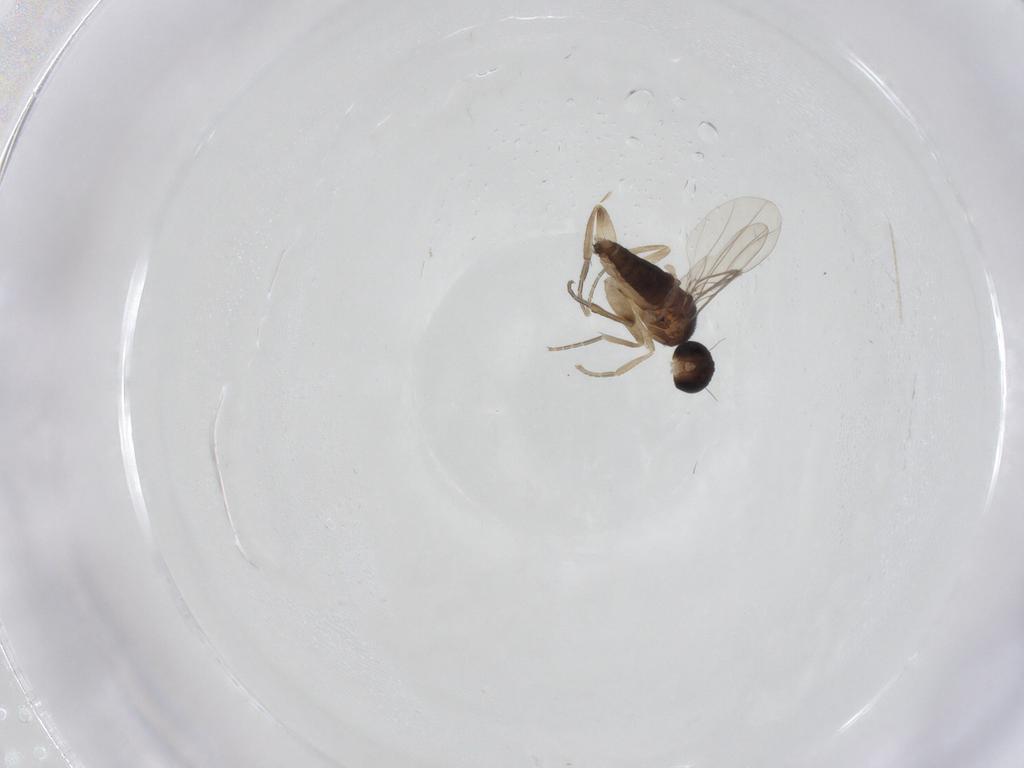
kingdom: Animalia
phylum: Arthropoda
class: Insecta
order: Diptera
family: Phoridae
